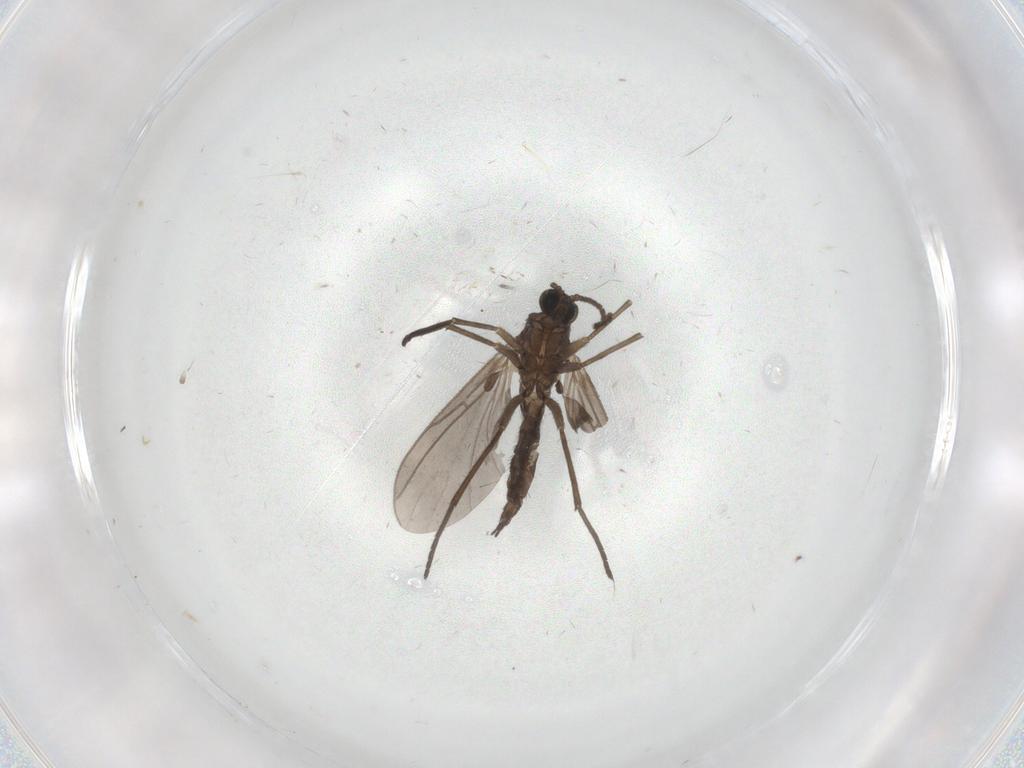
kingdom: Animalia
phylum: Arthropoda
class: Insecta
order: Diptera
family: Sciaridae
